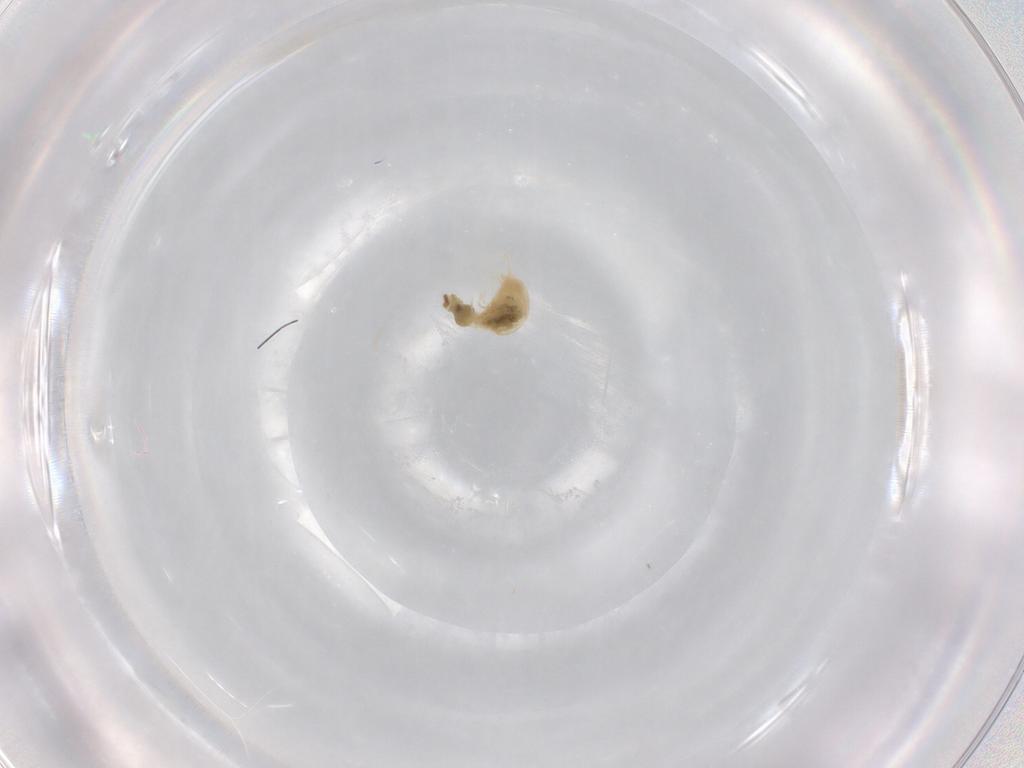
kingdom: Animalia
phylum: Arthropoda
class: Arachnida
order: Trombidiformes
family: Tetranychidae
